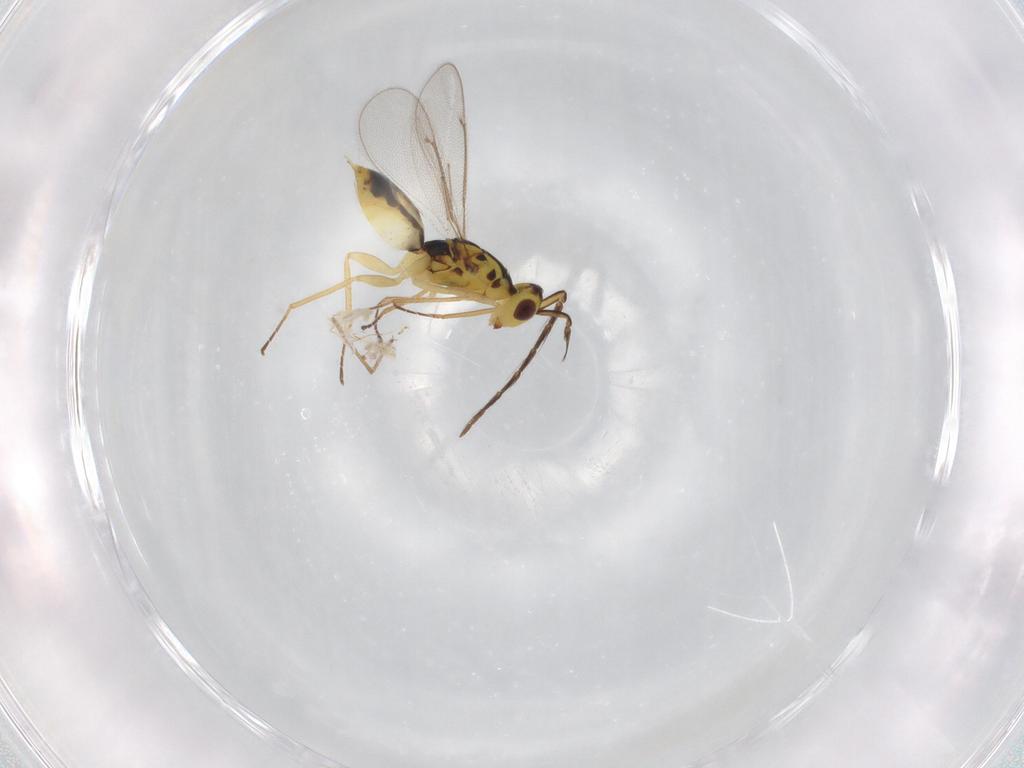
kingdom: Animalia
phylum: Arthropoda
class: Insecta
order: Hymenoptera
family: Eulophidae
